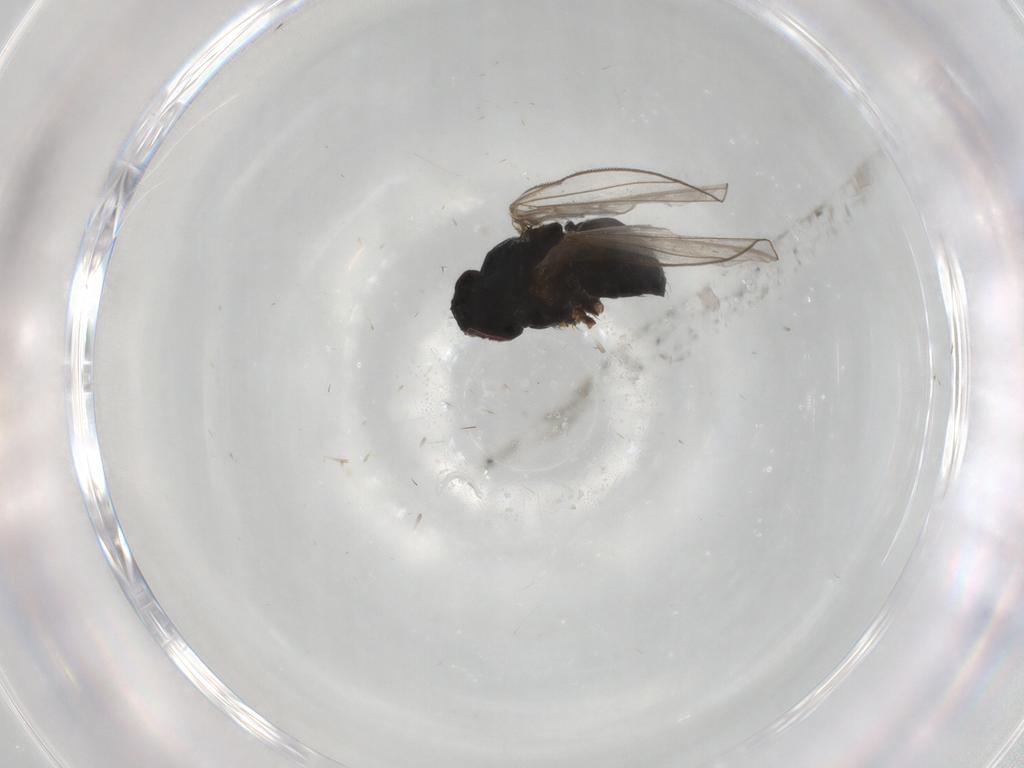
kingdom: Animalia
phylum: Arthropoda
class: Insecta
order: Diptera
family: Agromyzidae
